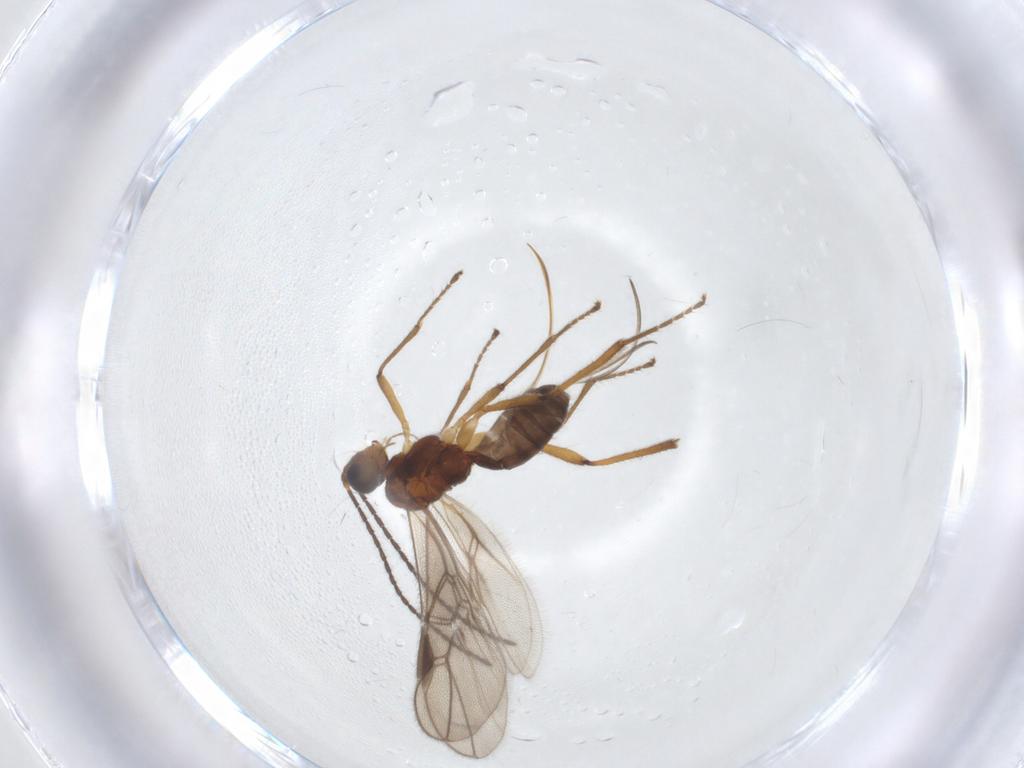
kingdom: Animalia
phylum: Arthropoda
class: Insecta
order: Hymenoptera
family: Braconidae
